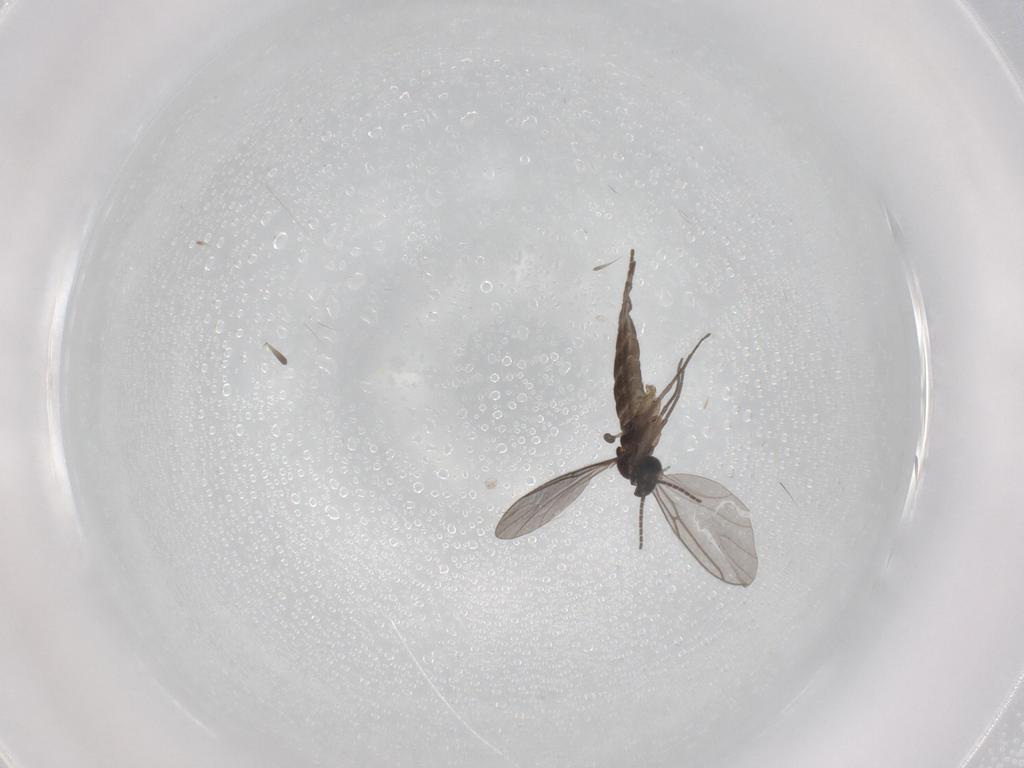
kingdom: Animalia
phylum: Arthropoda
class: Insecta
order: Diptera
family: Sciaridae
